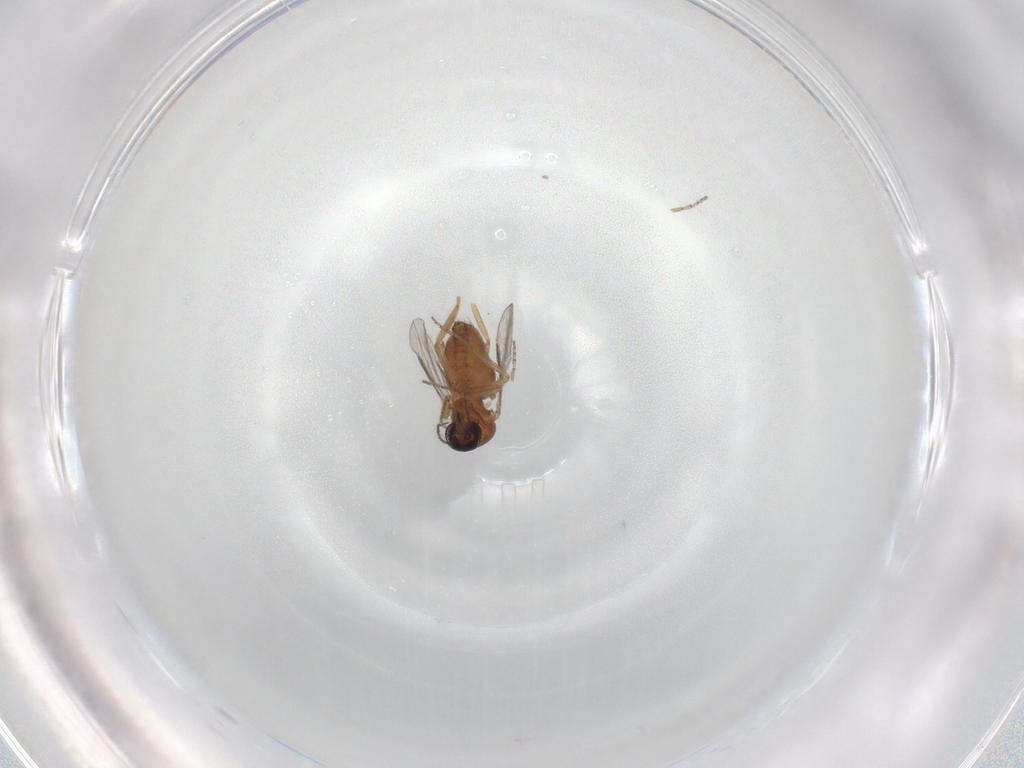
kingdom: Animalia
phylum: Arthropoda
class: Insecta
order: Diptera
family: Ceratopogonidae
